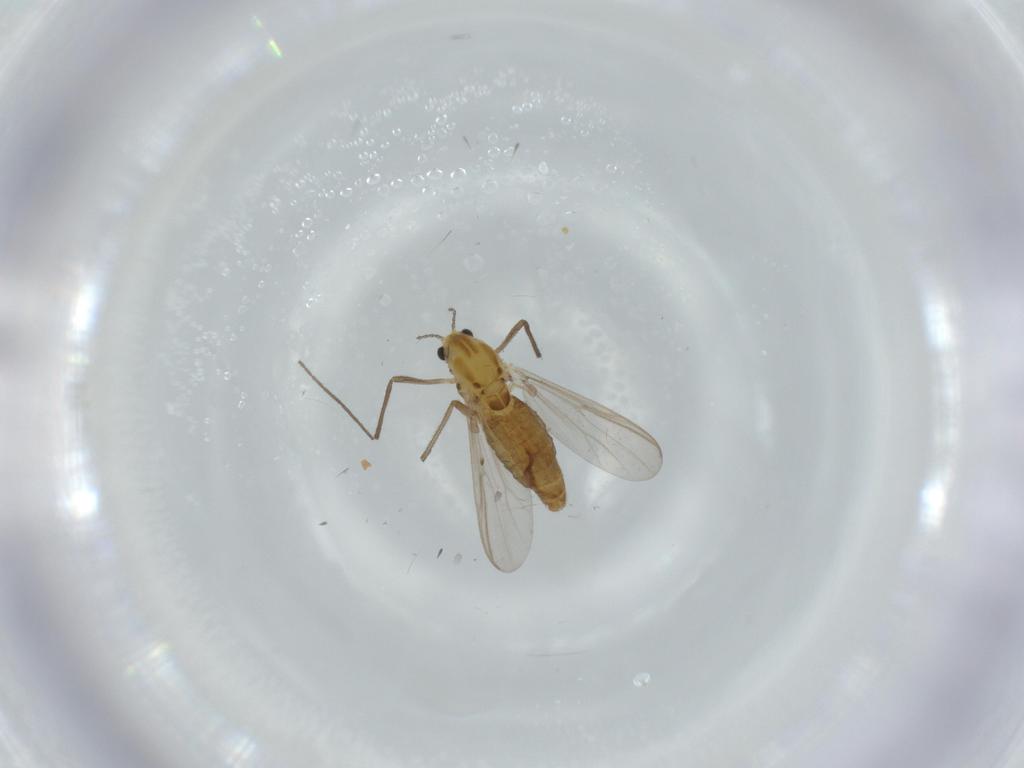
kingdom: Animalia
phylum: Arthropoda
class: Insecta
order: Diptera
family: Chironomidae
